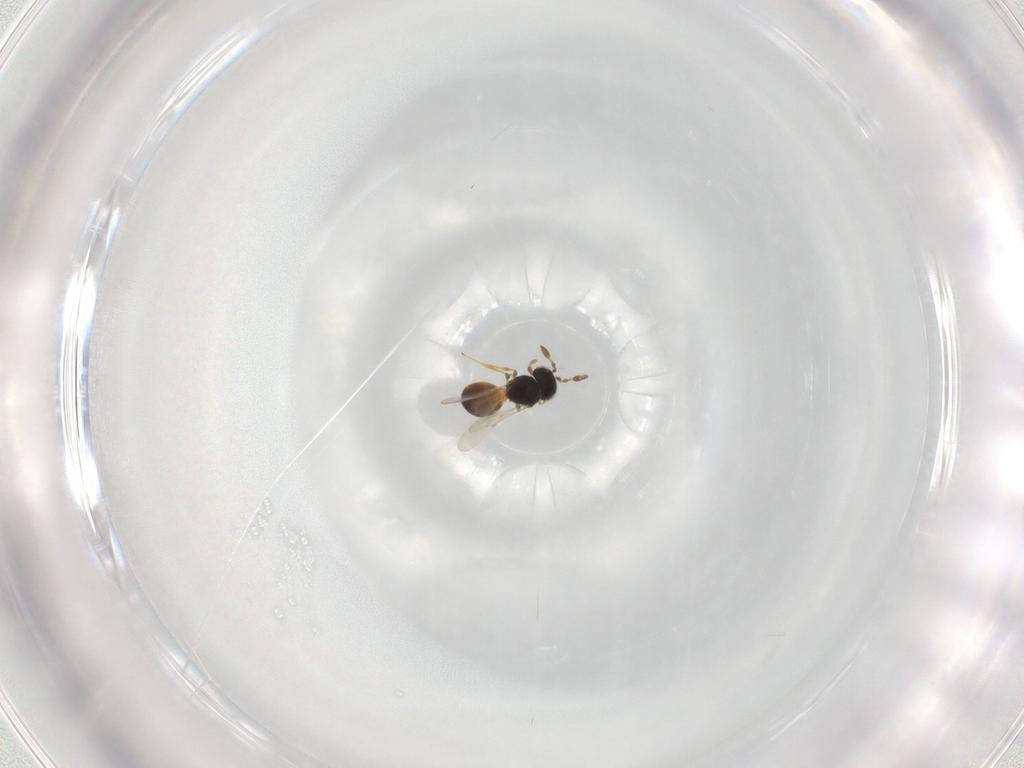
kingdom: Animalia
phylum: Arthropoda
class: Insecta
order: Hymenoptera
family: Scelionidae
